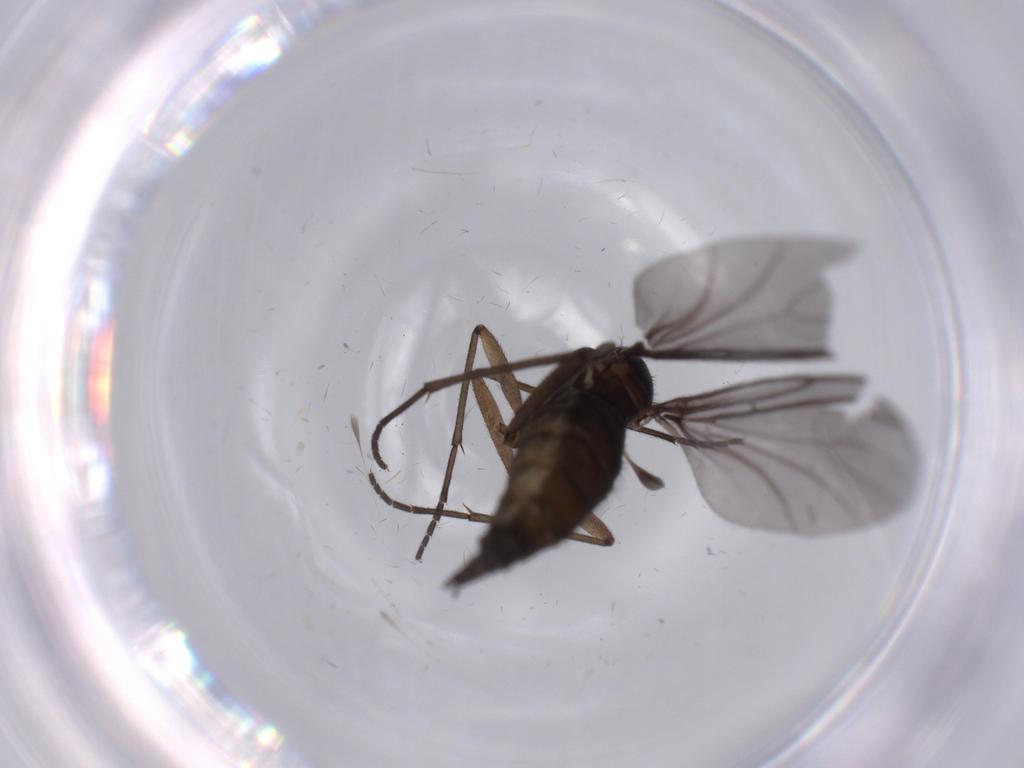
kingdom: Animalia
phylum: Arthropoda
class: Insecta
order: Diptera
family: Sciaridae
